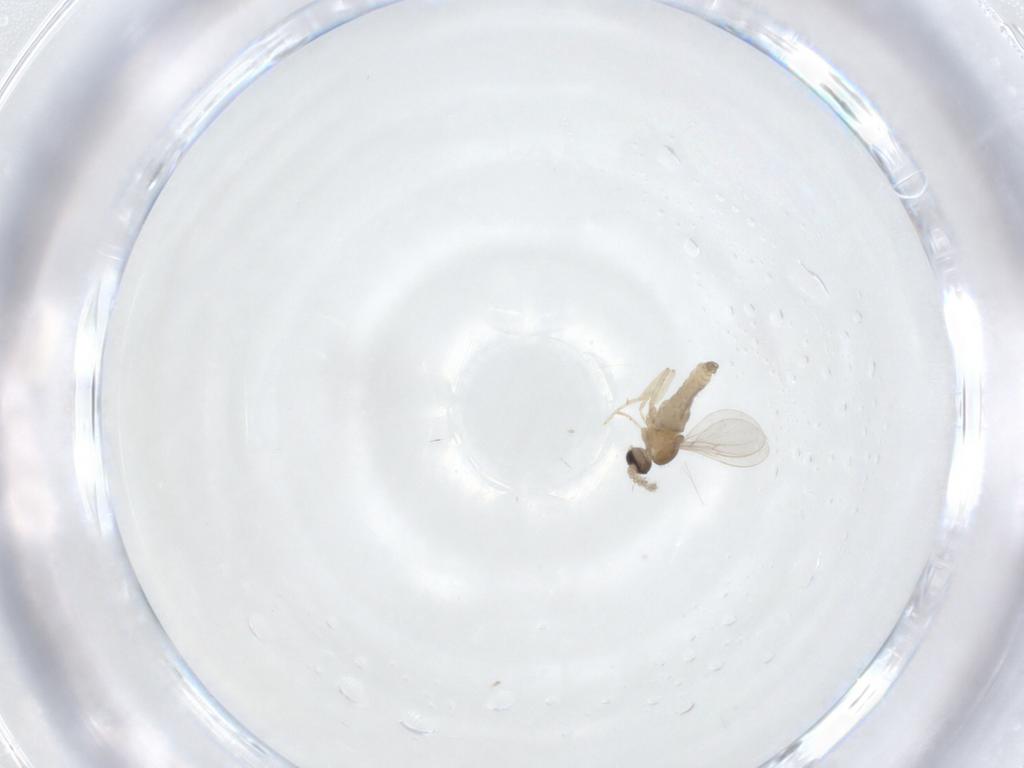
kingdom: Animalia
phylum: Arthropoda
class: Insecta
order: Diptera
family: Cecidomyiidae
